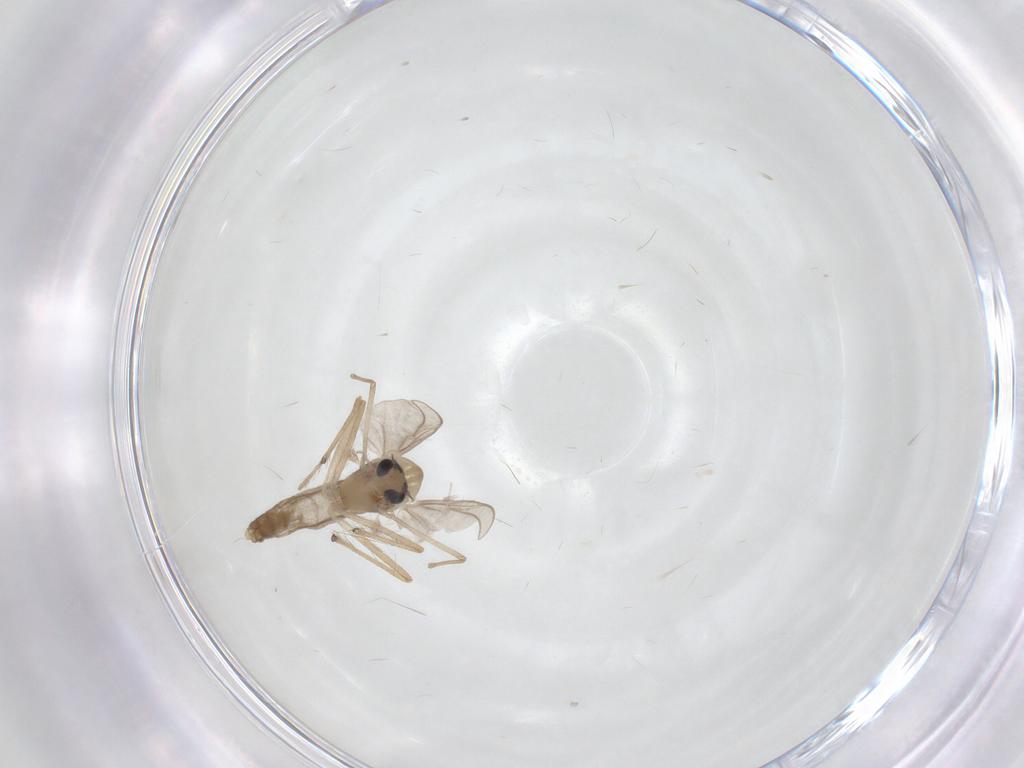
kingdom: Animalia
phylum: Arthropoda
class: Insecta
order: Diptera
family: Chironomidae
